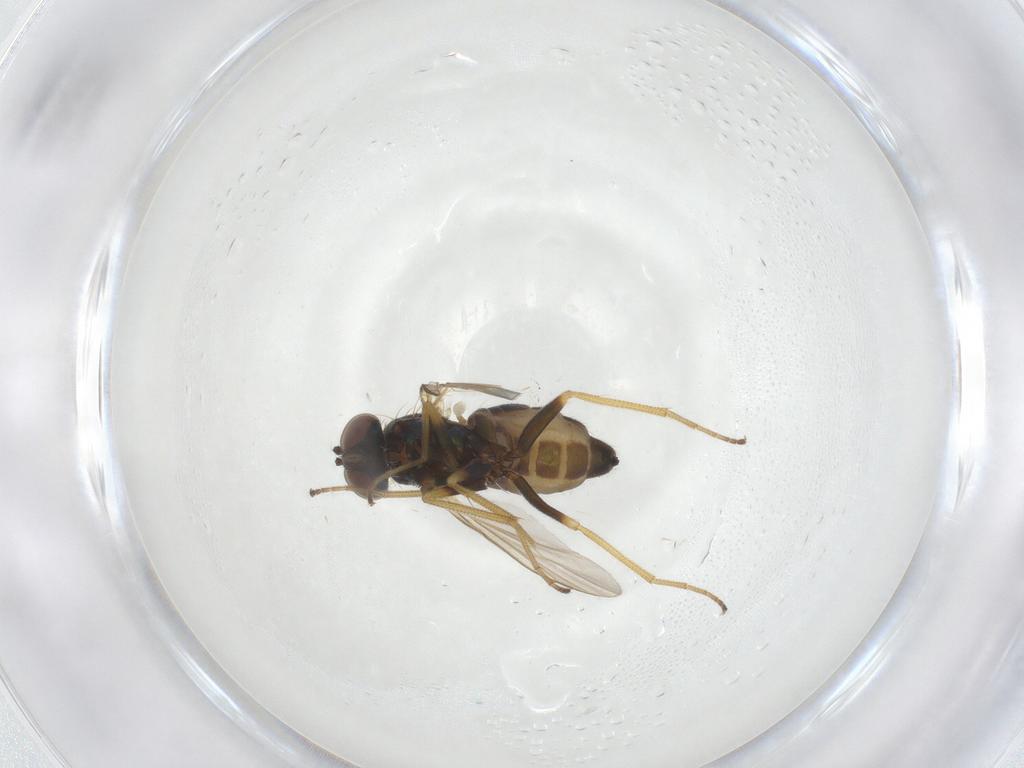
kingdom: Animalia
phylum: Arthropoda
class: Insecta
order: Diptera
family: Dolichopodidae
